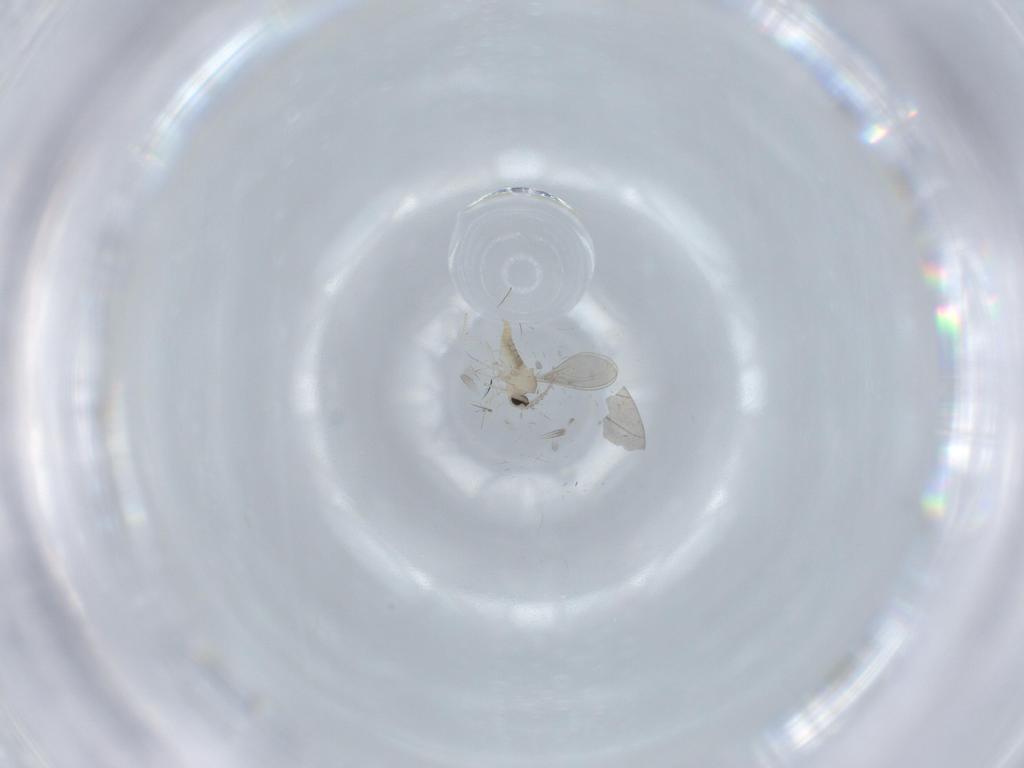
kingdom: Animalia
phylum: Arthropoda
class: Insecta
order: Diptera
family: Cecidomyiidae
